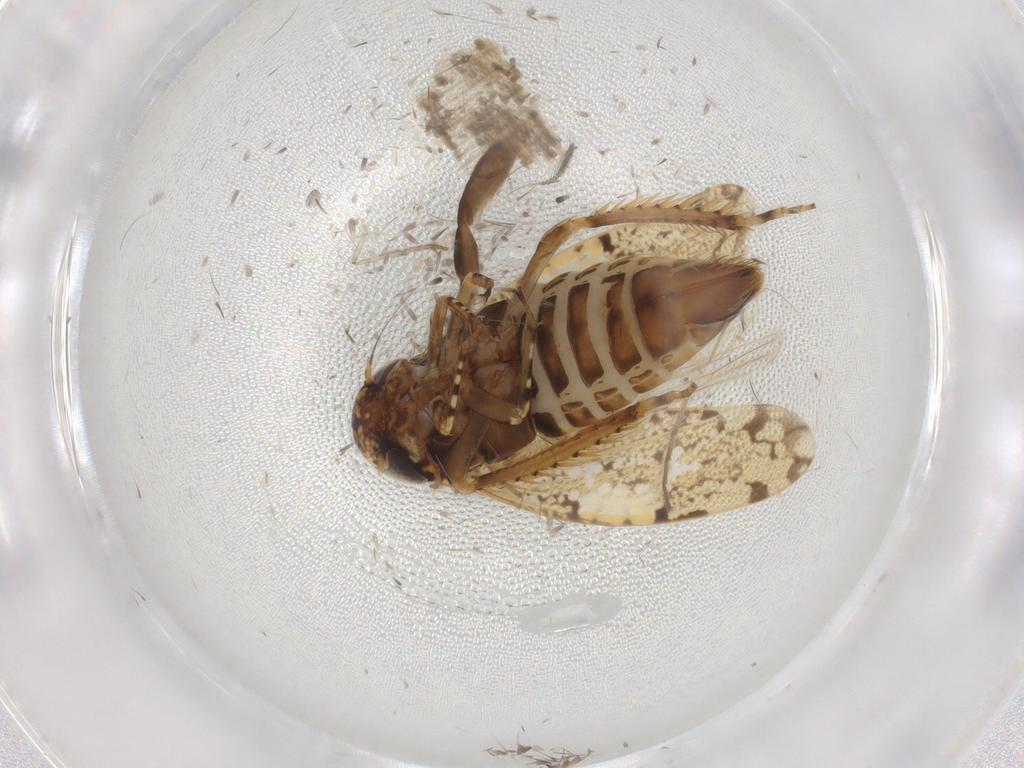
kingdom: Animalia
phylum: Arthropoda
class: Insecta
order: Hemiptera
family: Cicadellidae
